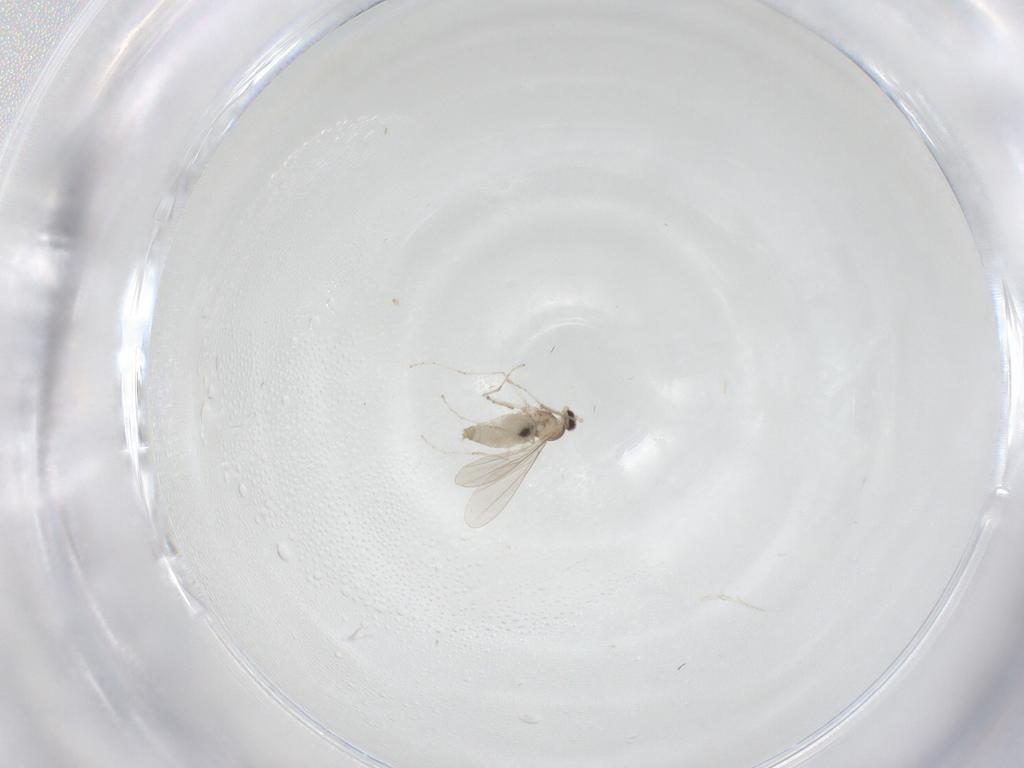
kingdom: Animalia
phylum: Arthropoda
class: Insecta
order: Diptera
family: Cecidomyiidae
